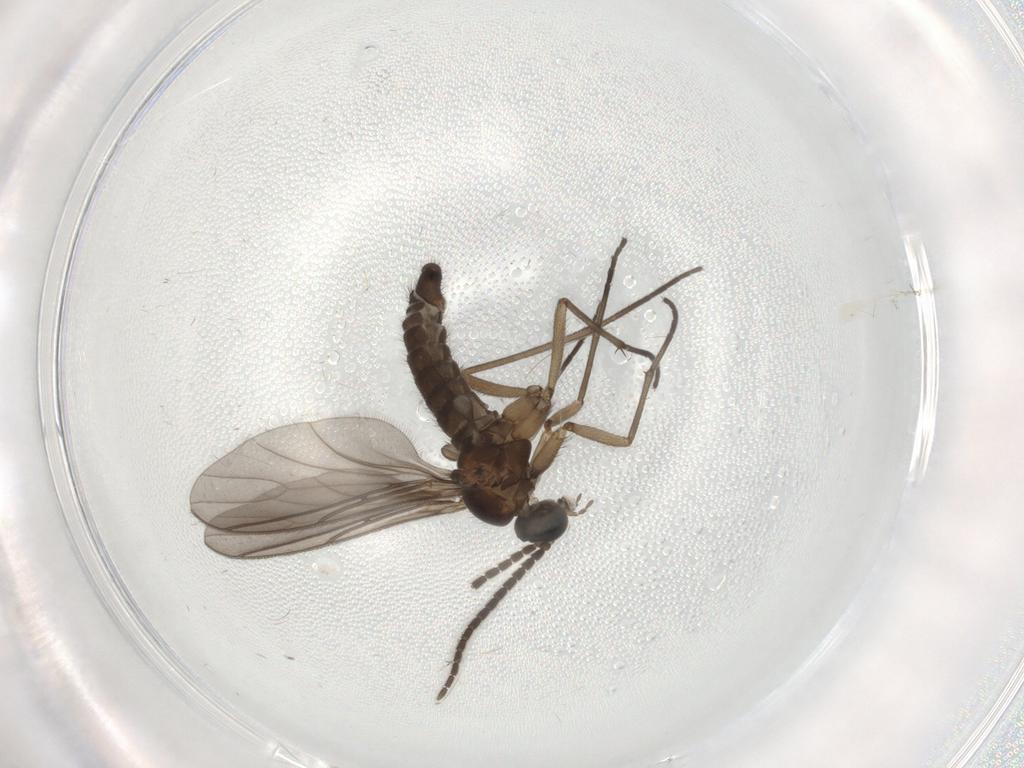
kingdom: Animalia
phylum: Arthropoda
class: Insecta
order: Diptera
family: Sciaridae
